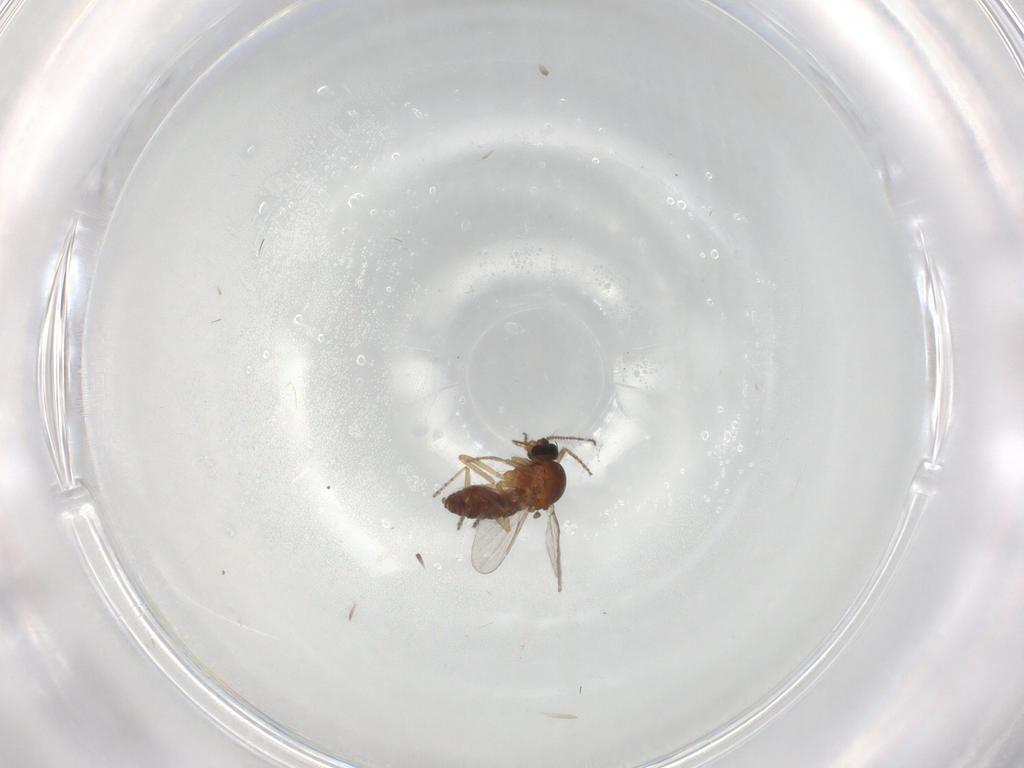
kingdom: Animalia
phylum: Arthropoda
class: Insecta
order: Diptera
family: Ceratopogonidae
